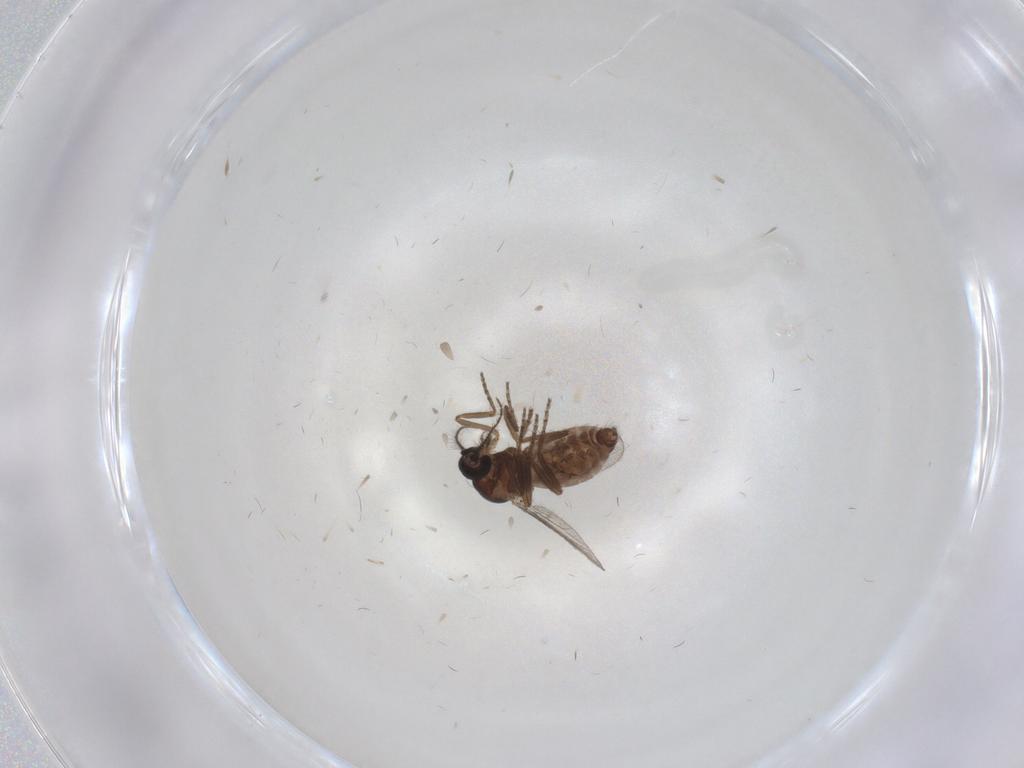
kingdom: Animalia
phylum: Arthropoda
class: Insecta
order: Diptera
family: Ceratopogonidae
